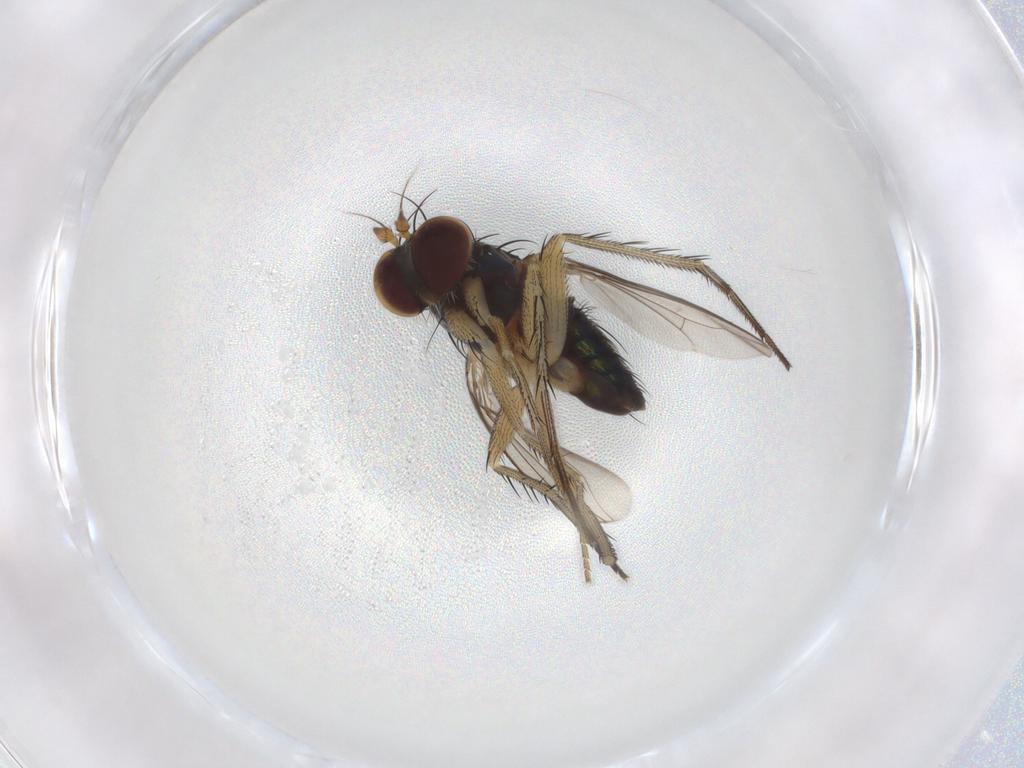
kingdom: Animalia
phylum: Arthropoda
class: Insecta
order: Diptera
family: Dolichopodidae
